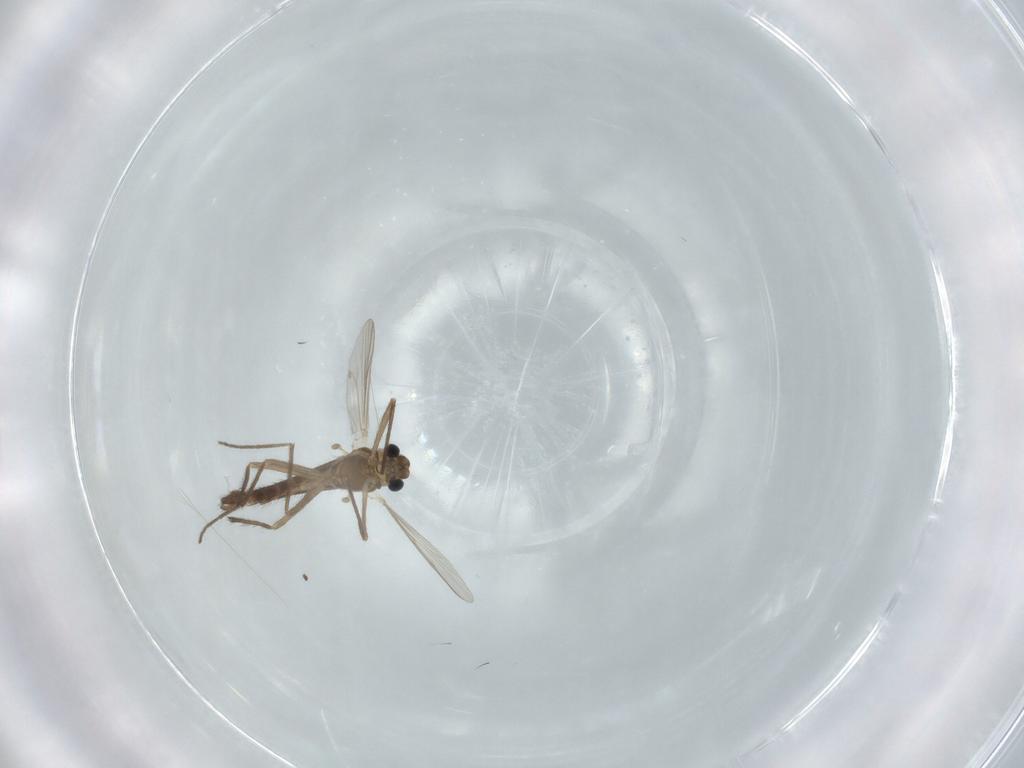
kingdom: Animalia
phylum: Arthropoda
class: Insecta
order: Diptera
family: Chironomidae
